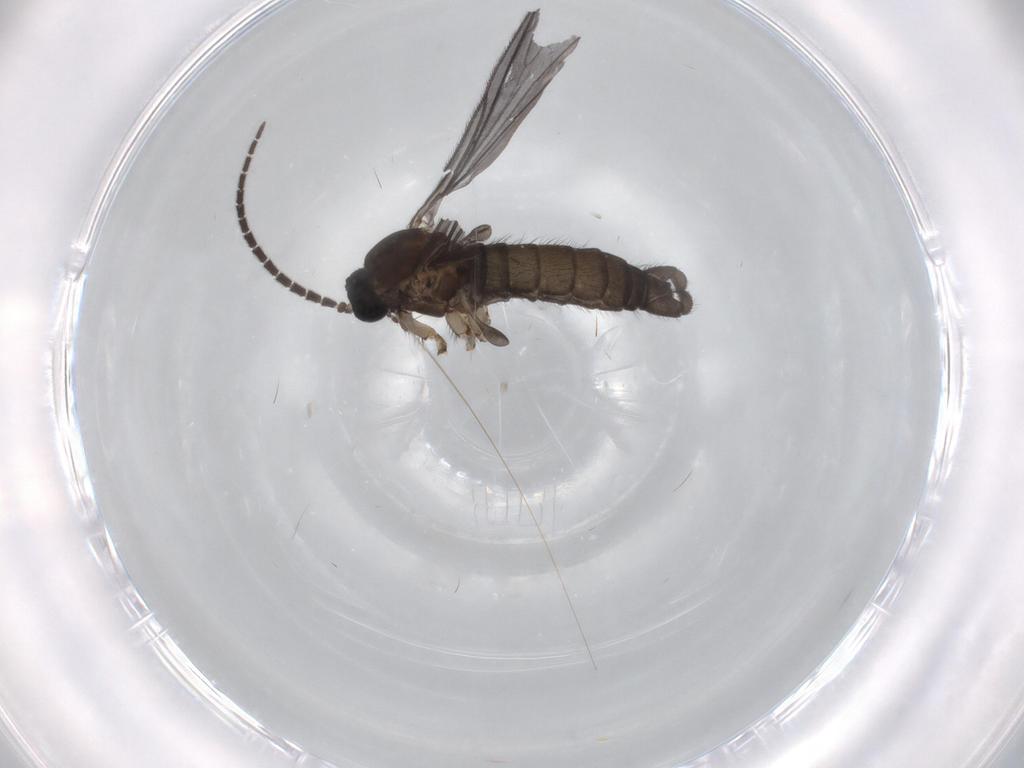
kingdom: Animalia
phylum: Arthropoda
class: Insecta
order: Diptera
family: Sciaridae
